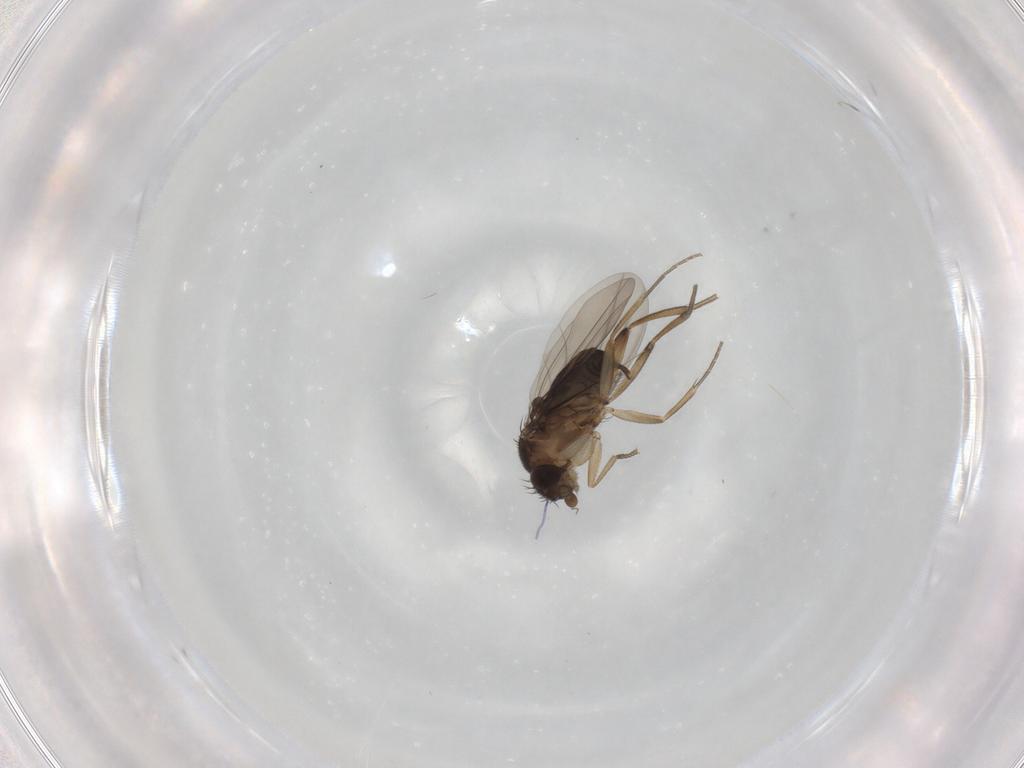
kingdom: Animalia
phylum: Arthropoda
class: Insecta
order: Diptera
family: Phoridae
